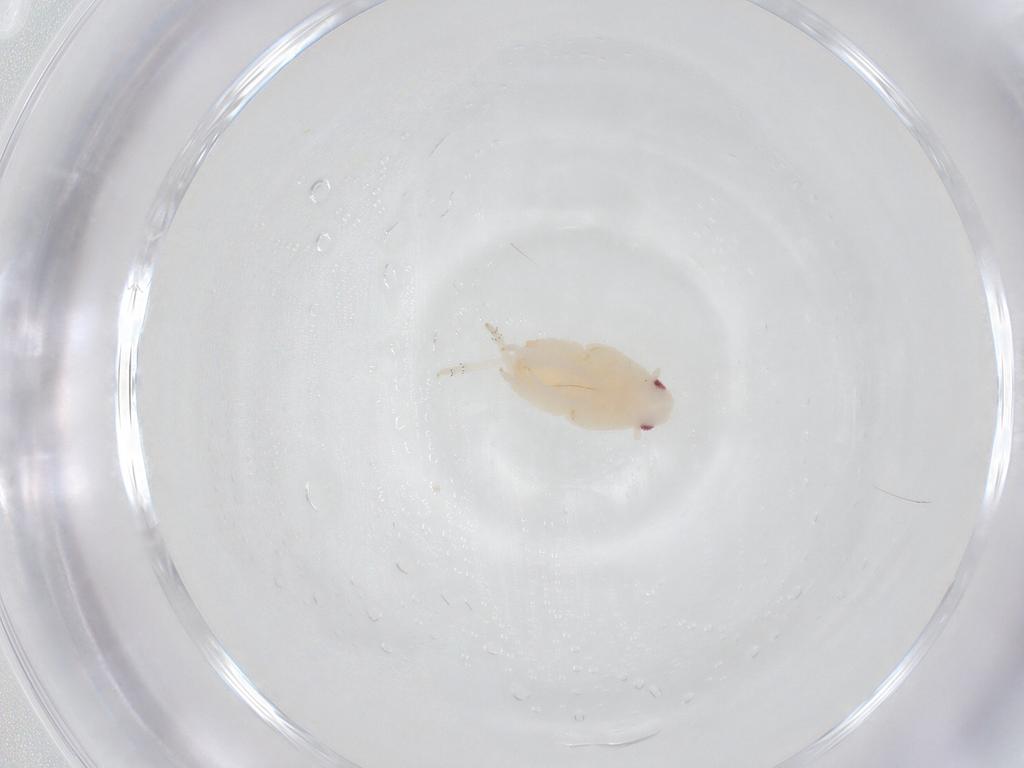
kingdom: Animalia
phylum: Arthropoda
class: Insecta
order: Hemiptera
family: Flatidae
